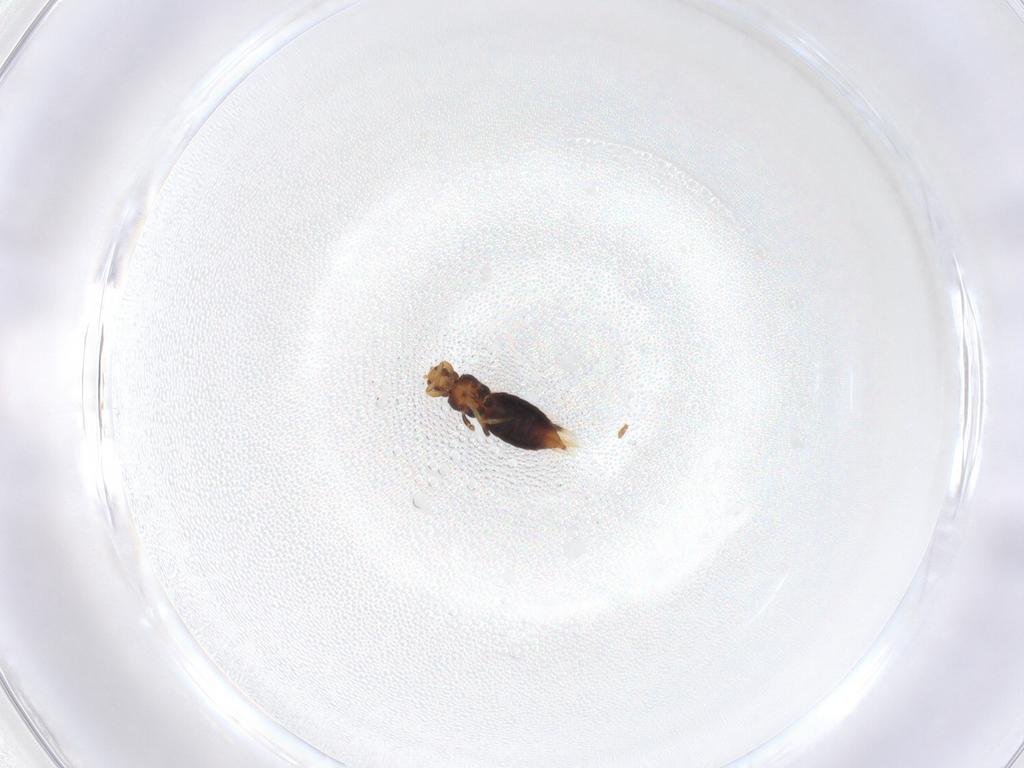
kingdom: Animalia
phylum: Arthropoda
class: Insecta
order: Thysanoptera
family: Thripidae
